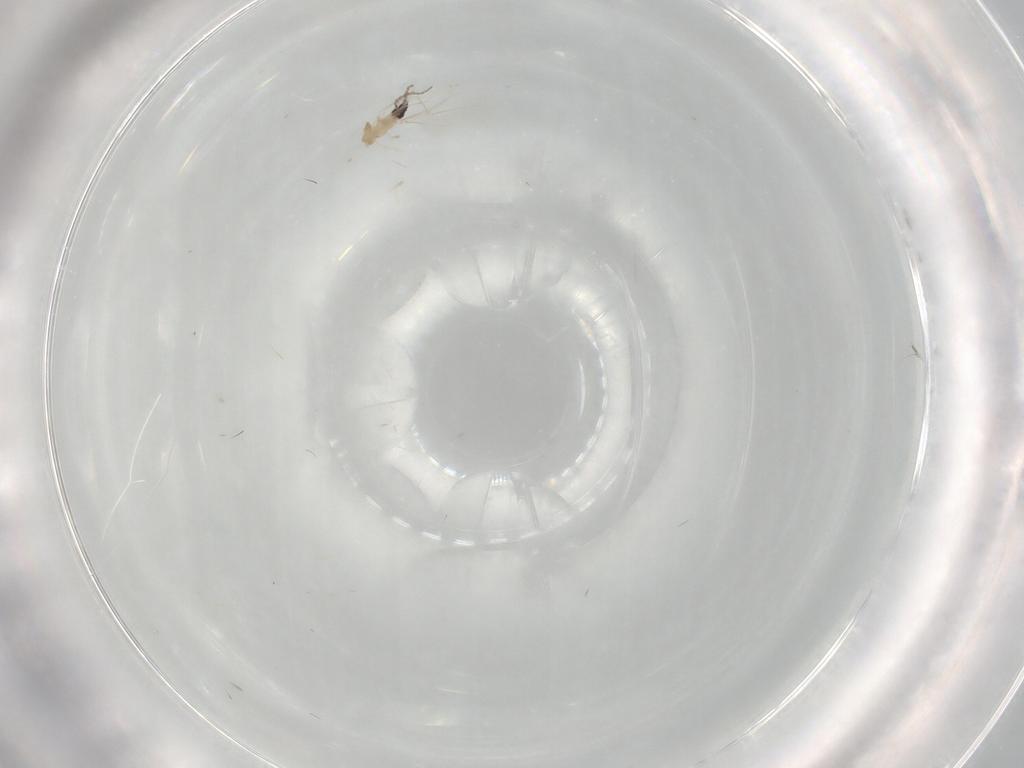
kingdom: Animalia
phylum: Arthropoda
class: Insecta
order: Diptera
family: Cecidomyiidae
